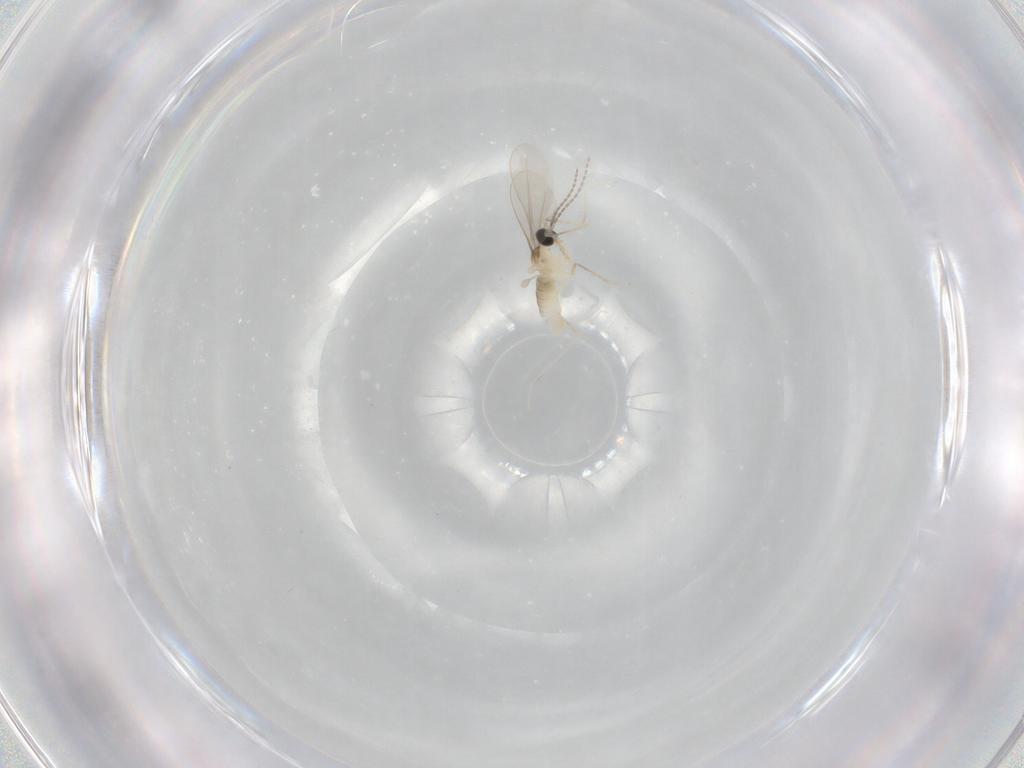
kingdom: Animalia
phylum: Arthropoda
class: Insecta
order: Diptera
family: Cecidomyiidae
